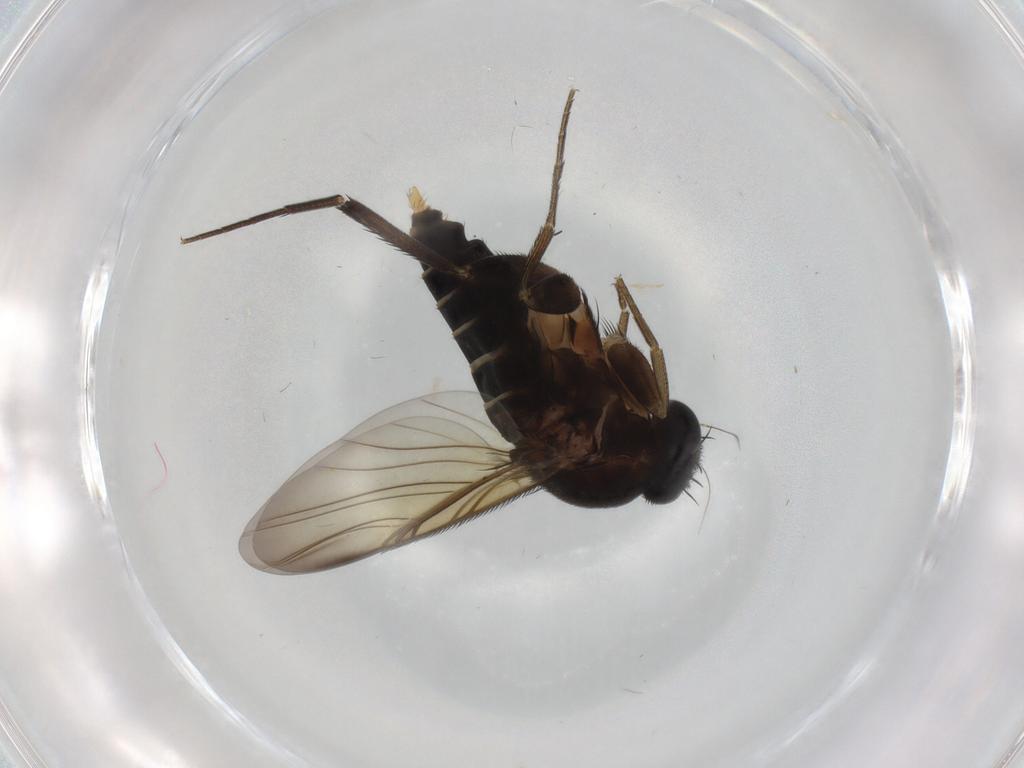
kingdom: Animalia
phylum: Arthropoda
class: Insecta
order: Diptera
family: Phoridae
